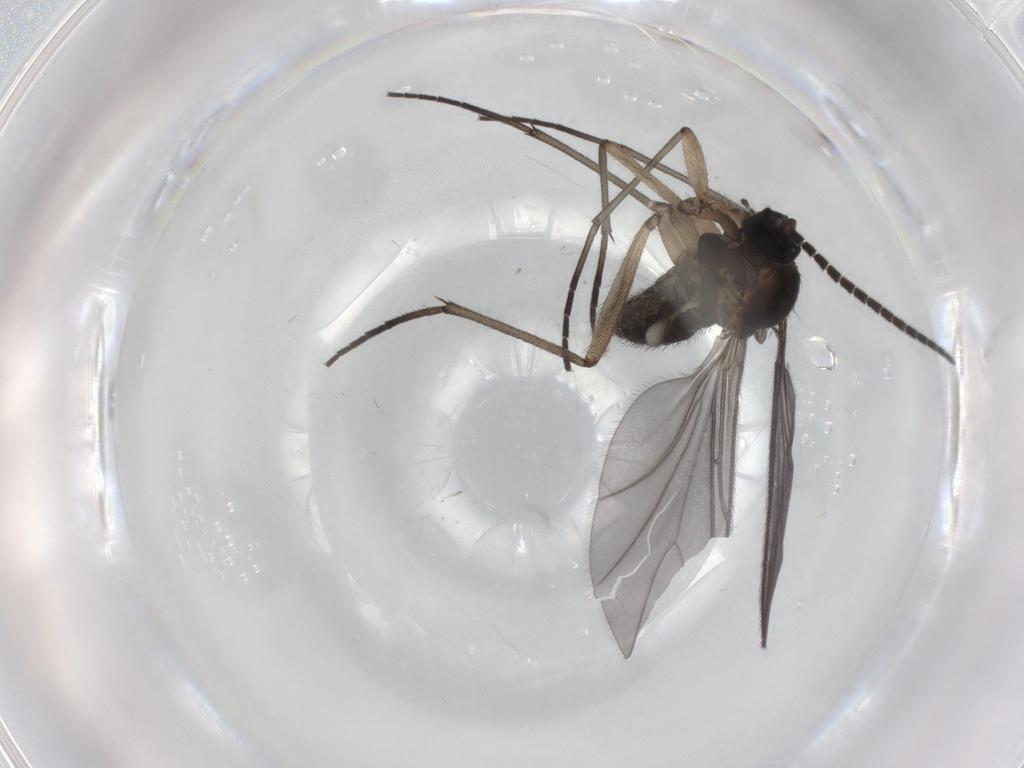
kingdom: Animalia
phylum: Arthropoda
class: Insecta
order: Diptera
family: Sciaridae
